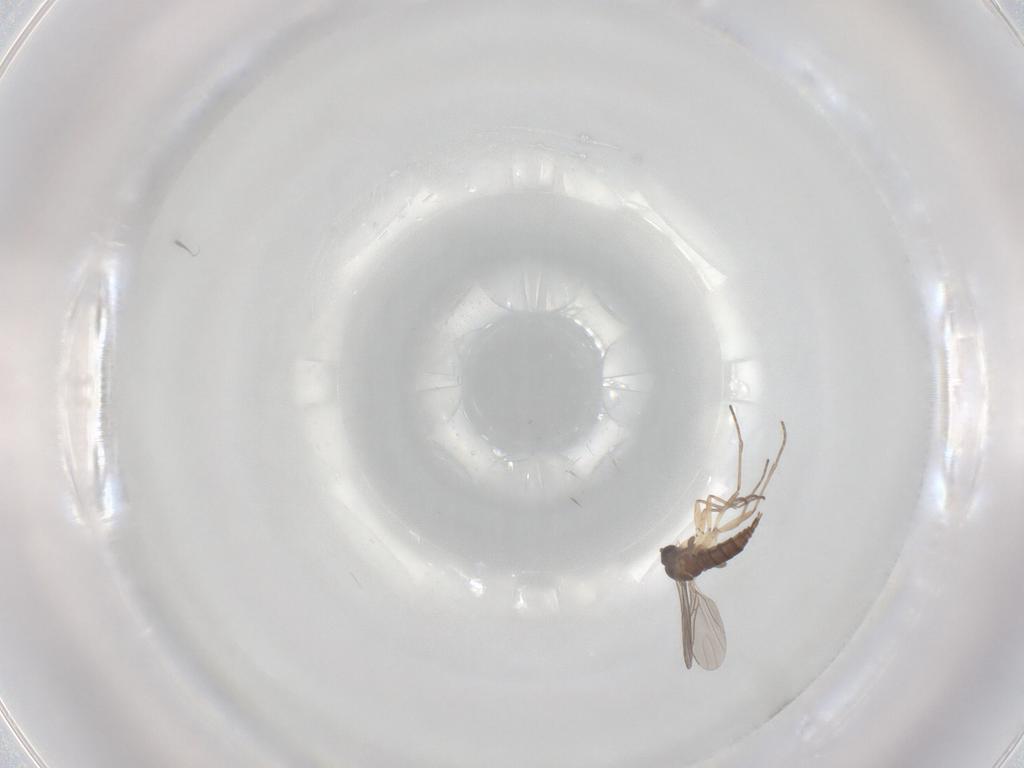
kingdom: Animalia
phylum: Arthropoda
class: Insecta
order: Diptera
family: Sciaridae
